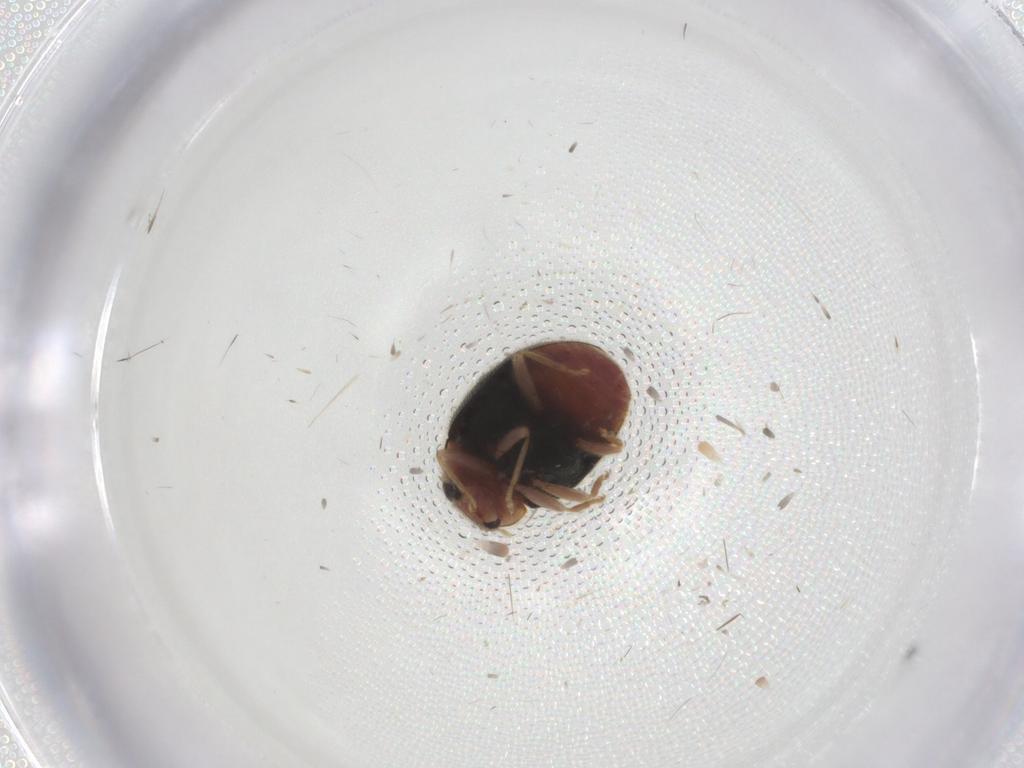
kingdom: Animalia
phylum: Arthropoda
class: Insecta
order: Coleoptera
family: Coccinellidae
